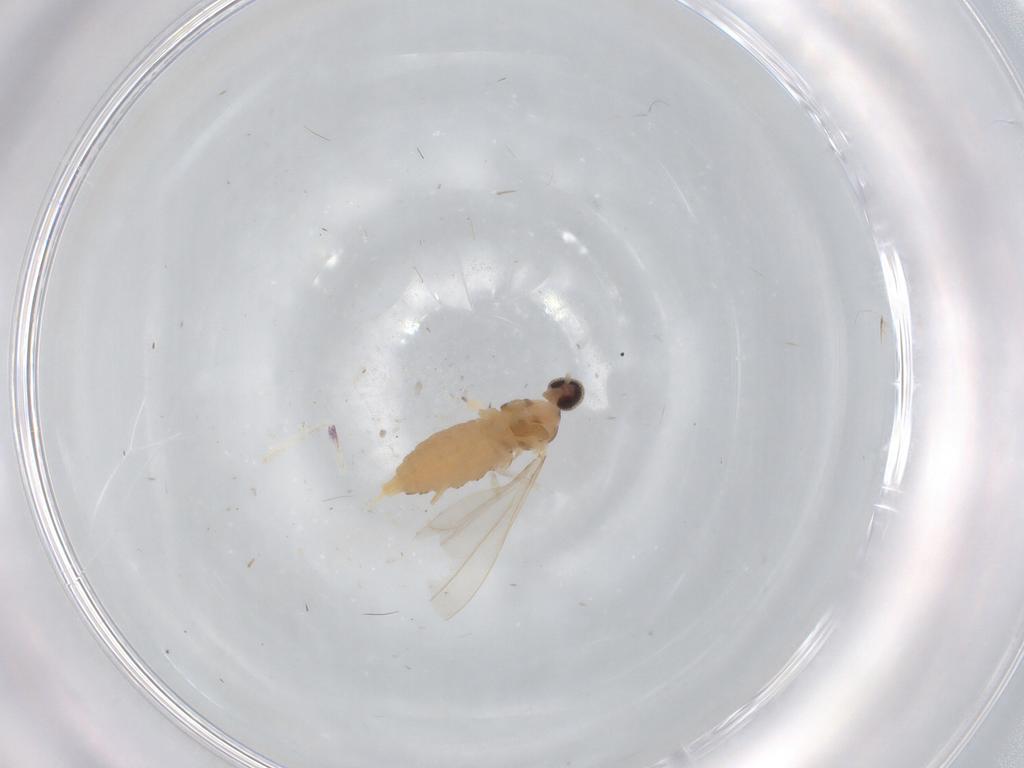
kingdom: Animalia
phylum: Arthropoda
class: Insecta
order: Diptera
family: Cecidomyiidae
